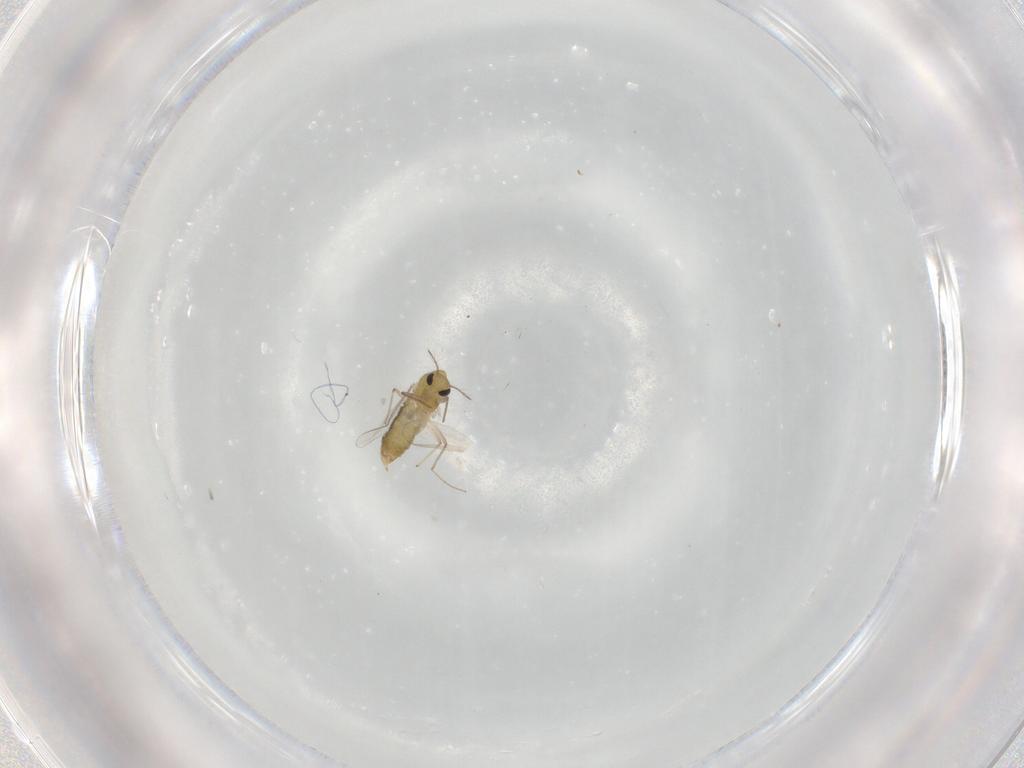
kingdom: Animalia
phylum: Arthropoda
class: Insecta
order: Diptera
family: Chironomidae
